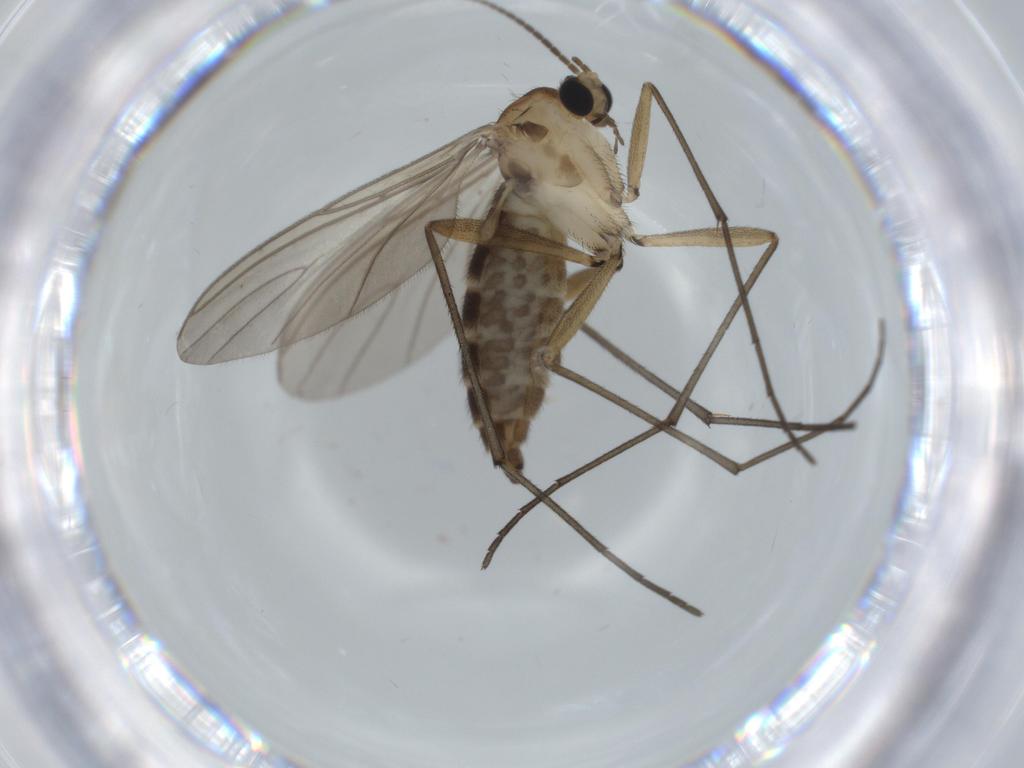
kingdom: Animalia
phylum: Arthropoda
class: Insecta
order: Diptera
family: Sciaridae
